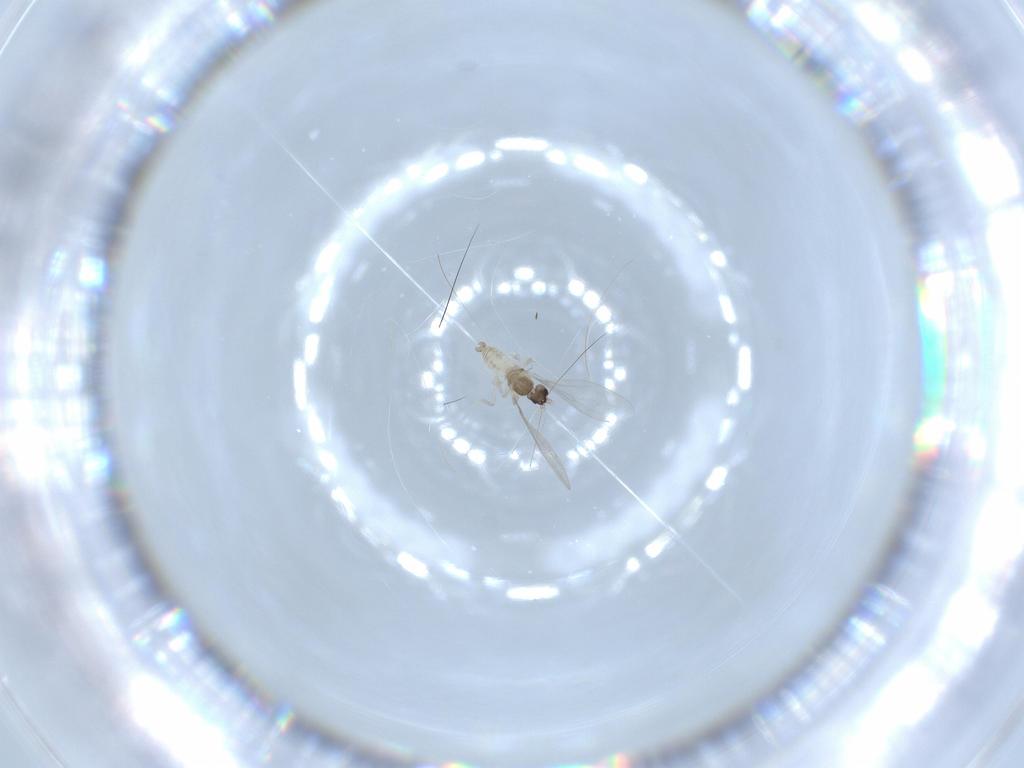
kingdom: Animalia
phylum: Arthropoda
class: Insecta
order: Diptera
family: Cecidomyiidae
